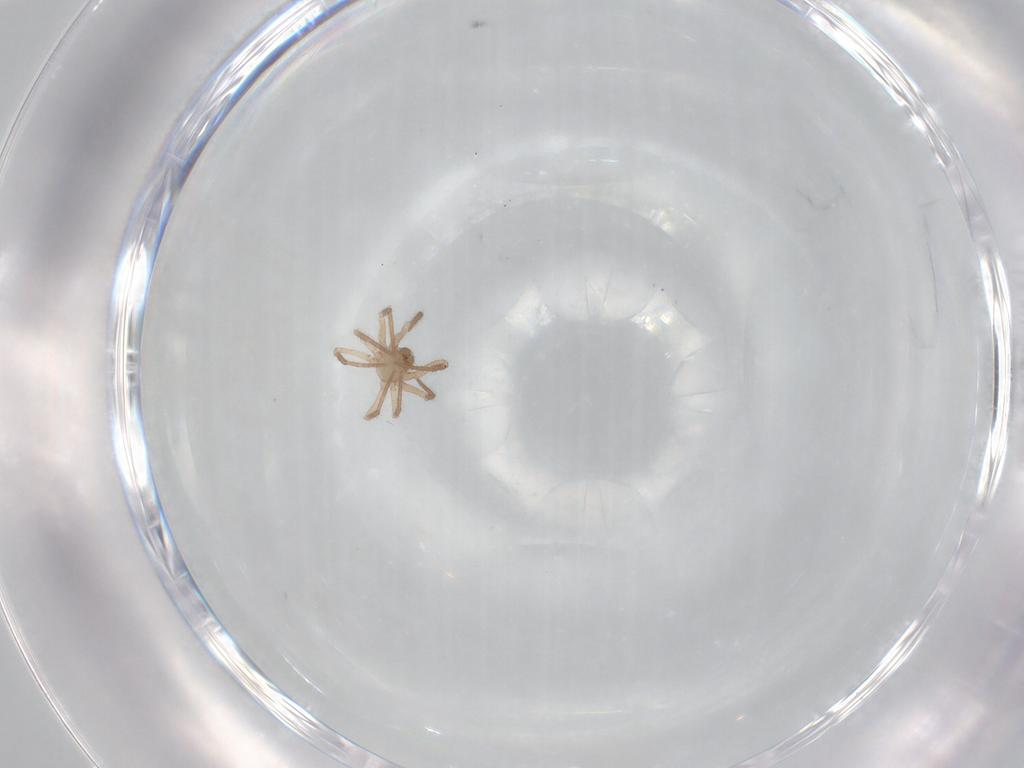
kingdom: Animalia
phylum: Arthropoda
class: Arachnida
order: Araneae
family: Symphytognathidae
